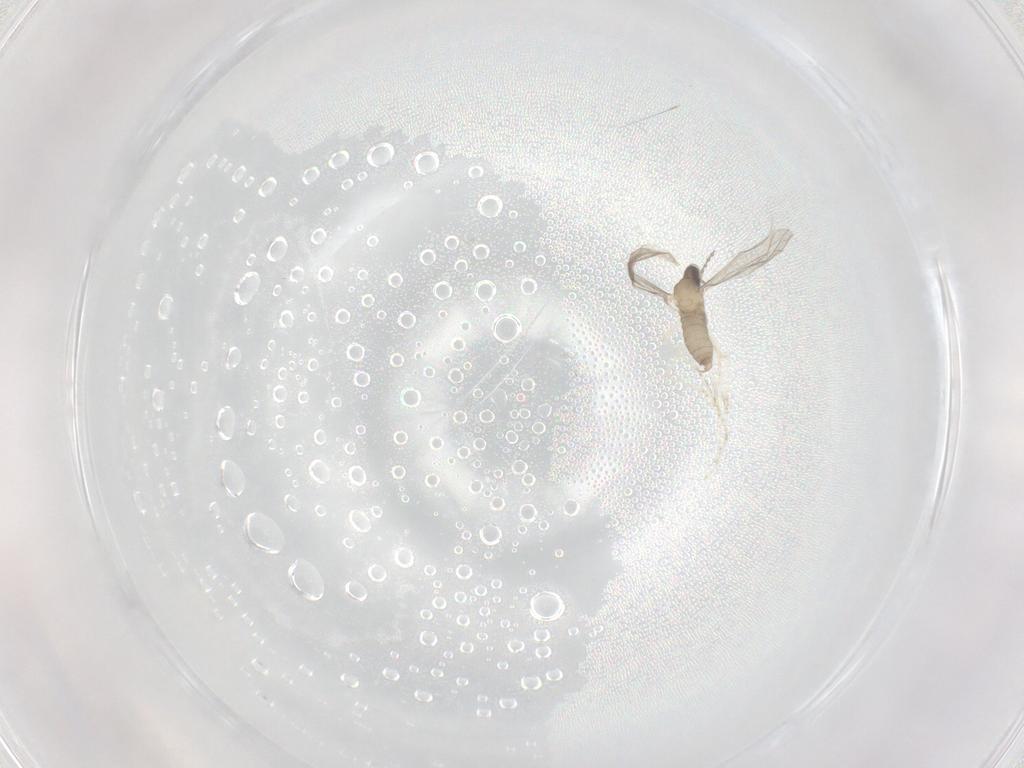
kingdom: Animalia
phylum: Arthropoda
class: Insecta
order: Diptera
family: Cecidomyiidae
